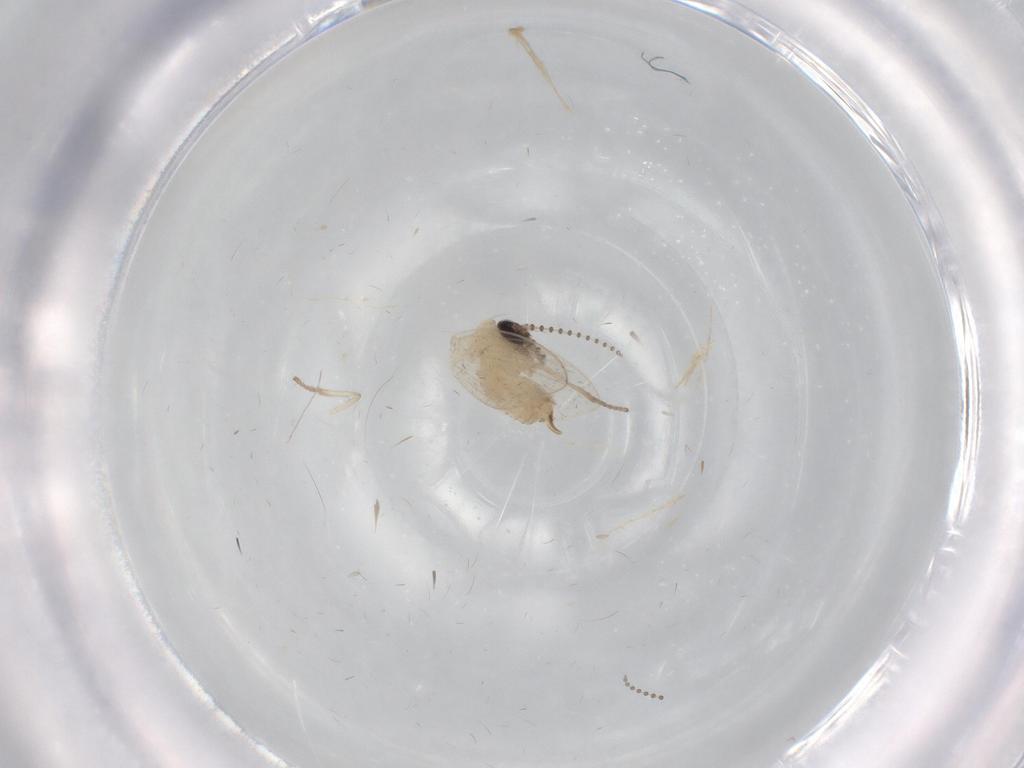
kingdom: Animalia
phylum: Arthropoda
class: Insecta
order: Diptera
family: Psychodidae
